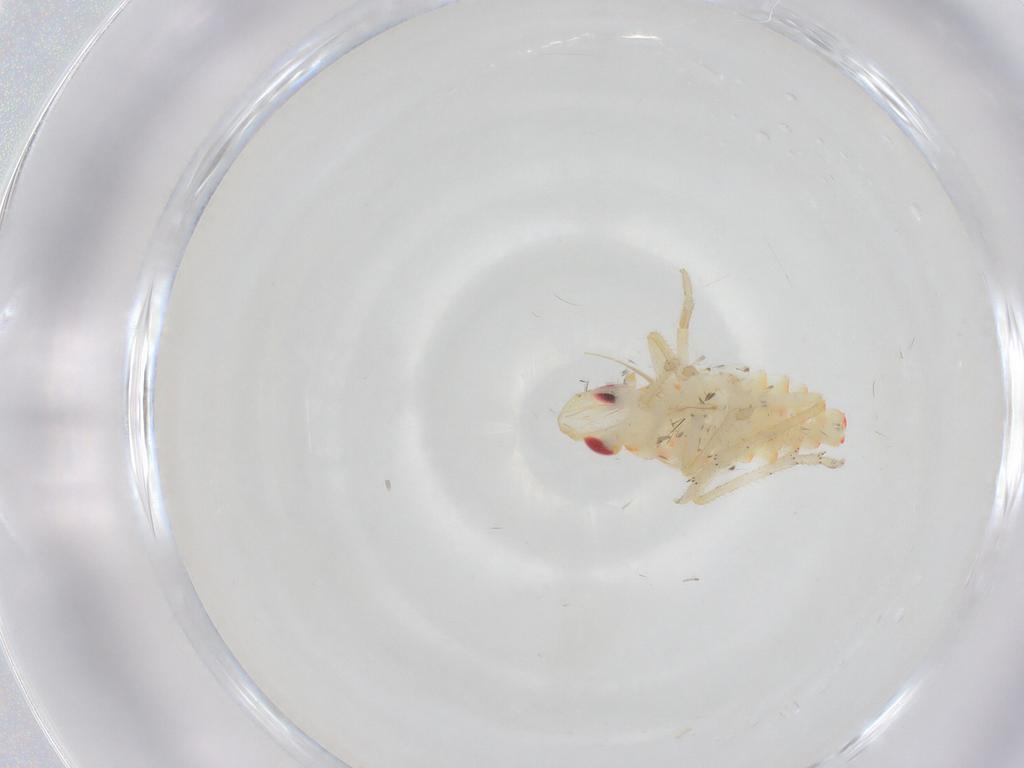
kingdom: Animalia
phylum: Arthropoda
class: Insecta
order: Hemiptera
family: Tropiduchidae
